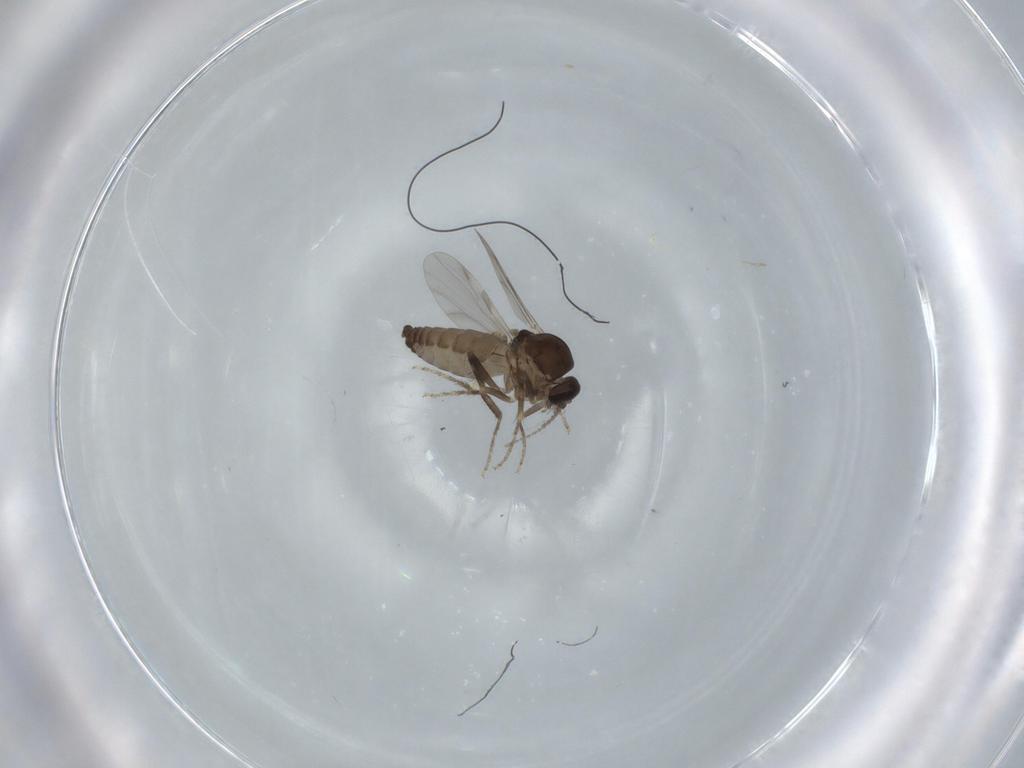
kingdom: Animalia
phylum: Arthropoda
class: Insecta
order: Diptera
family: Ceratopogonidae
